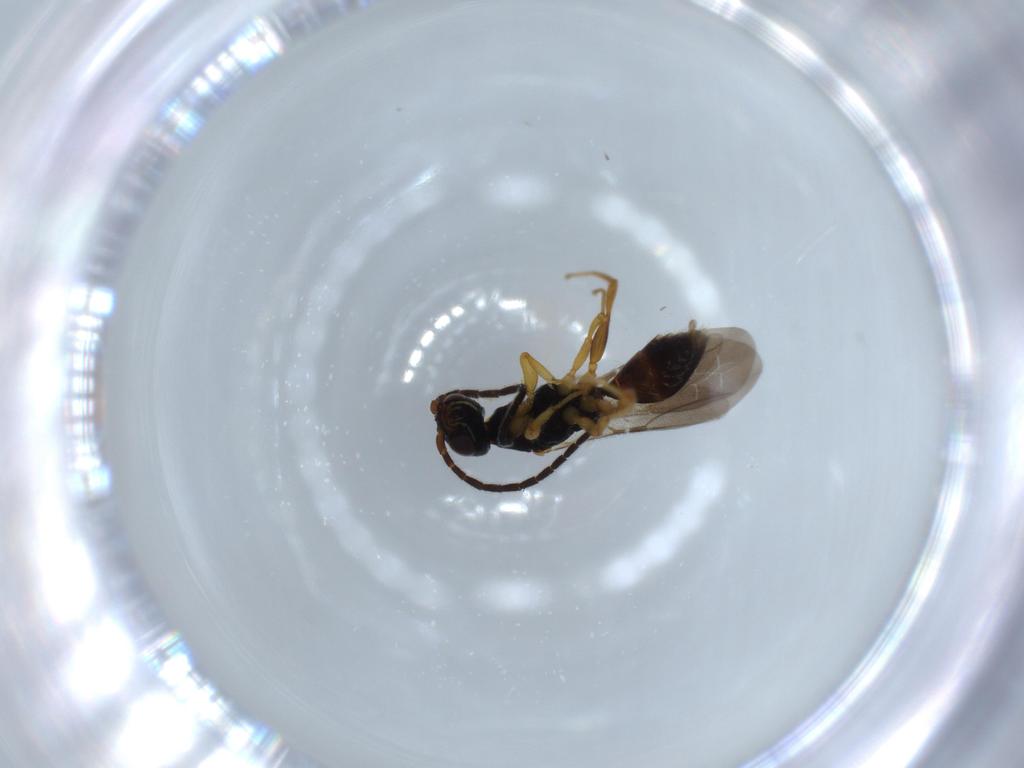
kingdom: Animalia
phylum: Arthropoda
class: Insecta
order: Hymenoptera
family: Bethylidae
